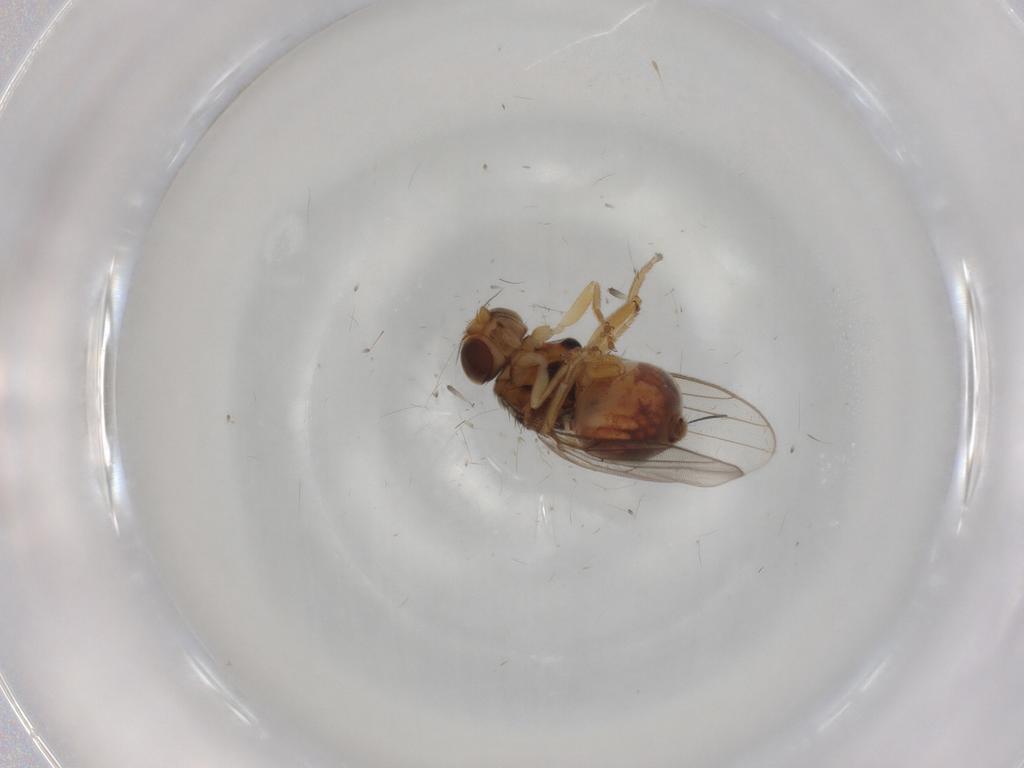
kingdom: Animalia
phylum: Arthropoda
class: Insecta
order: Diptera
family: Chloropidae
